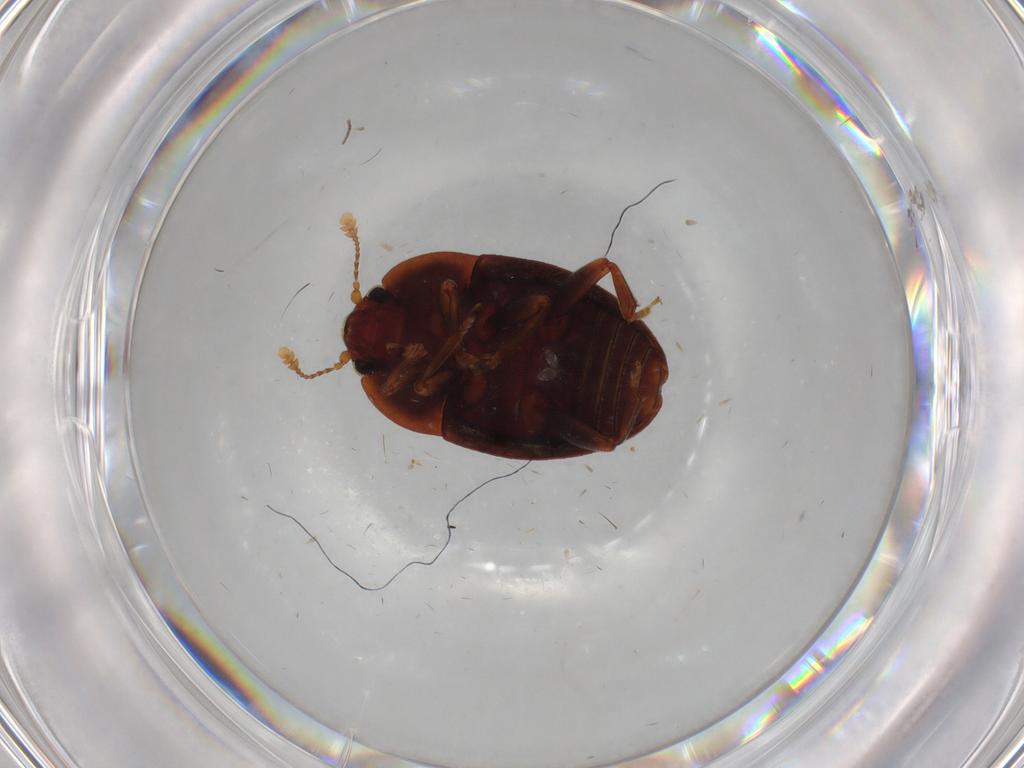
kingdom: Animalia
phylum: Arthropoda
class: Insecta
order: Coleoptera
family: Nitidulidae
